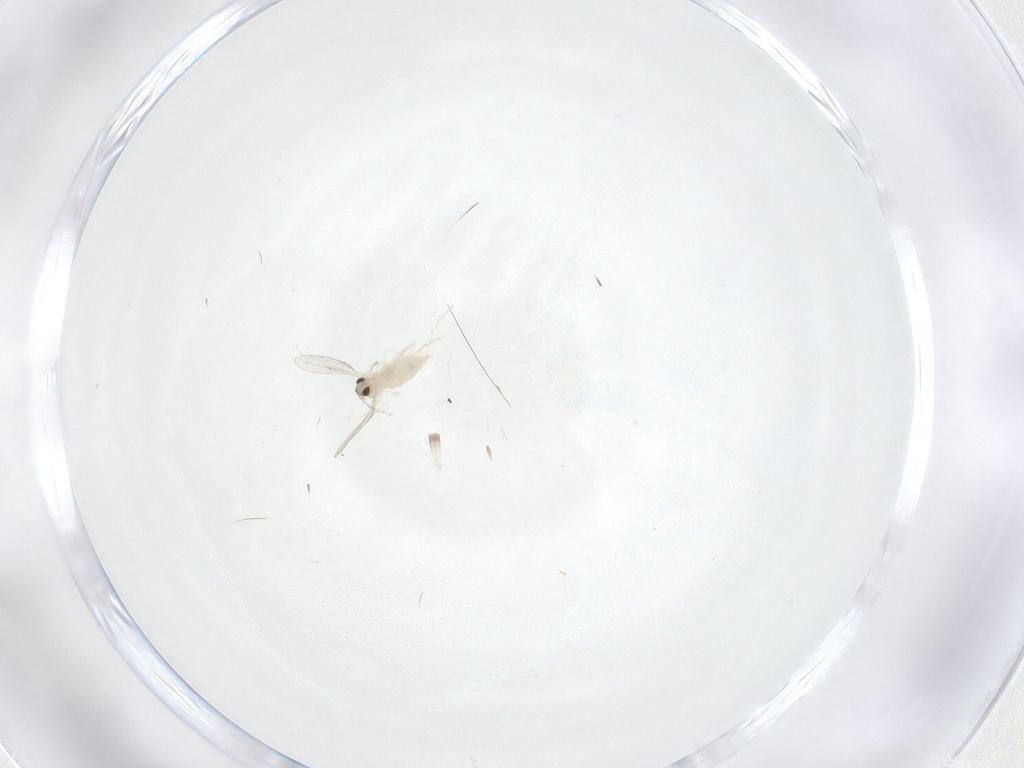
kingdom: Animalia
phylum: Arthropoda
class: Insecta
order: Diptera
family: Cecidomyiidae
